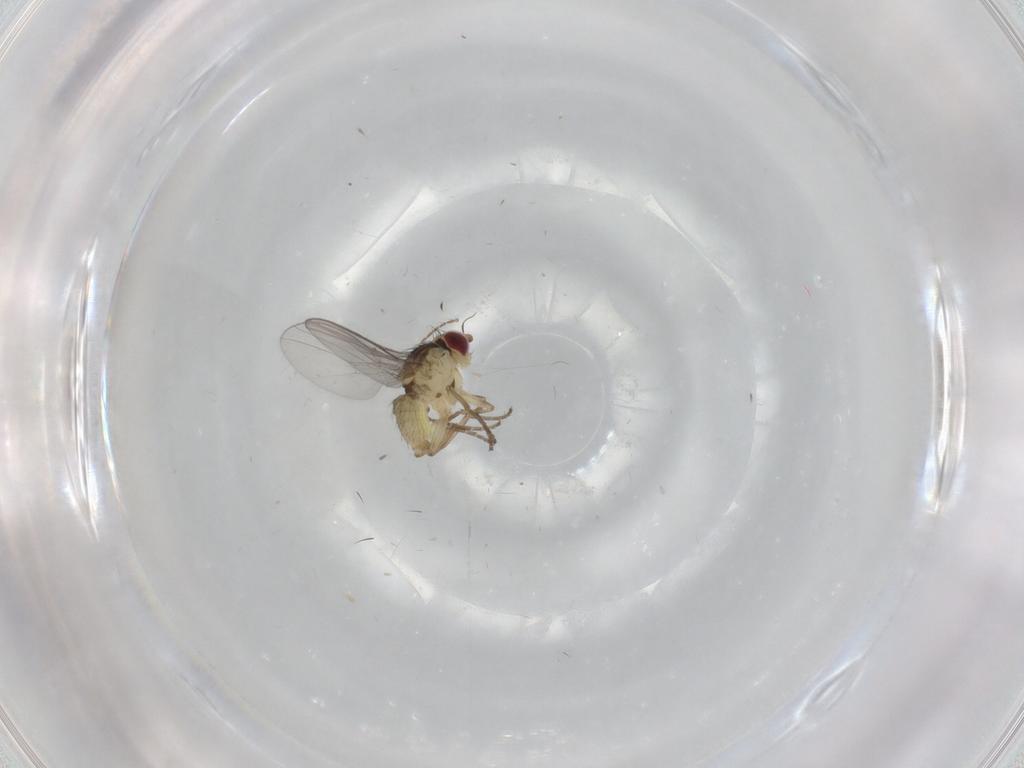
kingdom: Animalia
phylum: Arthropoda
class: Insecta
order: Diptera
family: Agromyzidae
